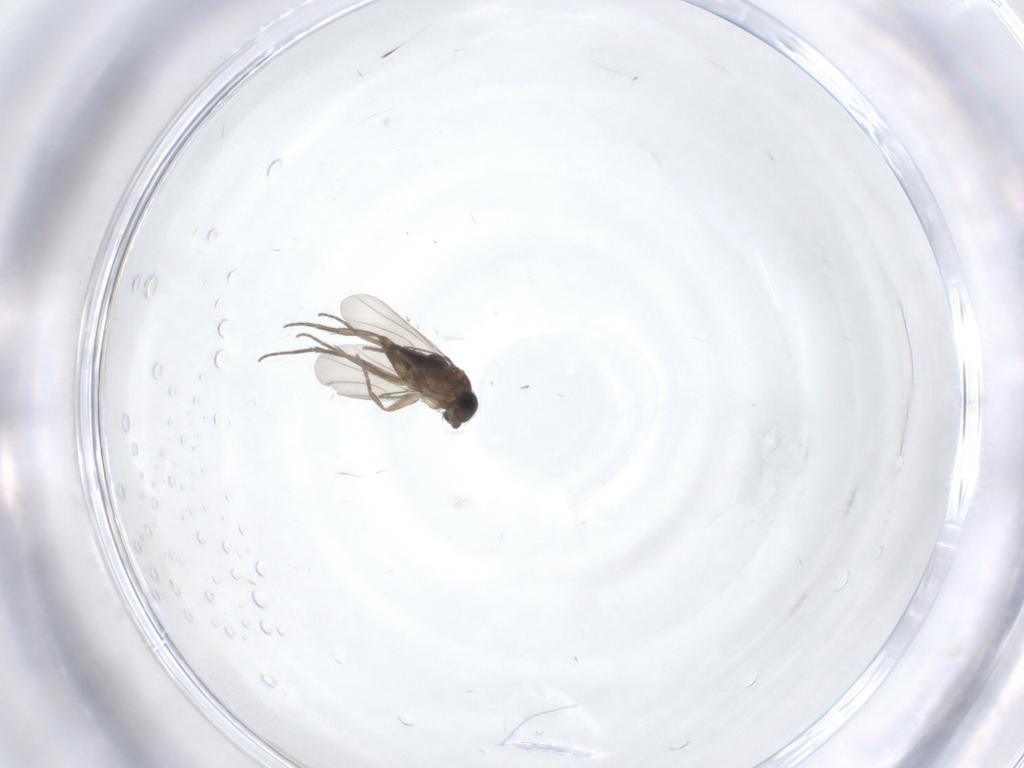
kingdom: Animalia
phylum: Arthropoda
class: Insecta
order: Diptera
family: Phoridae
